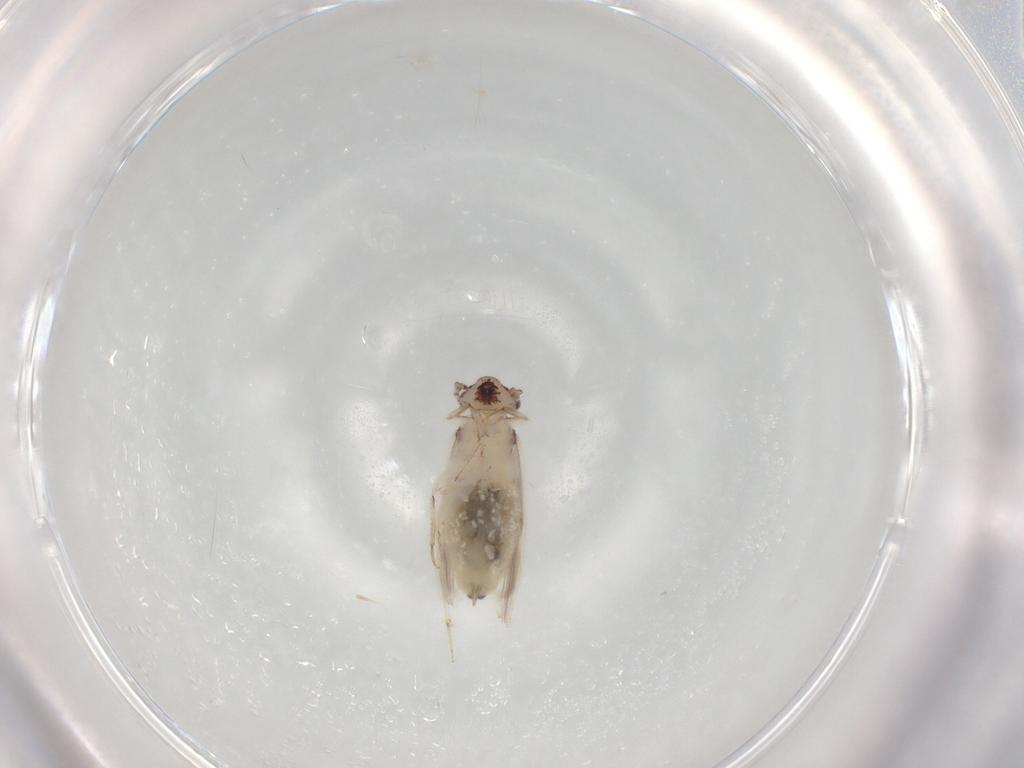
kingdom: Animalia
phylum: Arthropoda
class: Insecta
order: Psocodea
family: Lepidopsocidae
